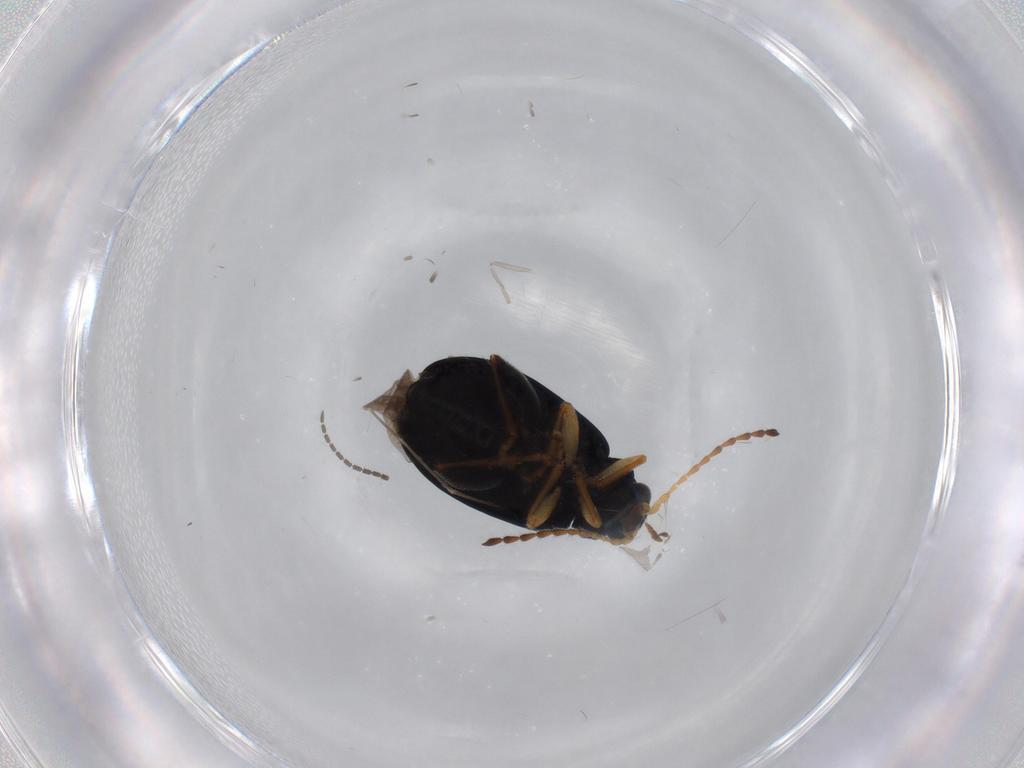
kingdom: Animalia
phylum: Arthropoda
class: Insecta
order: Coleoptera
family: Chrysomelidae
